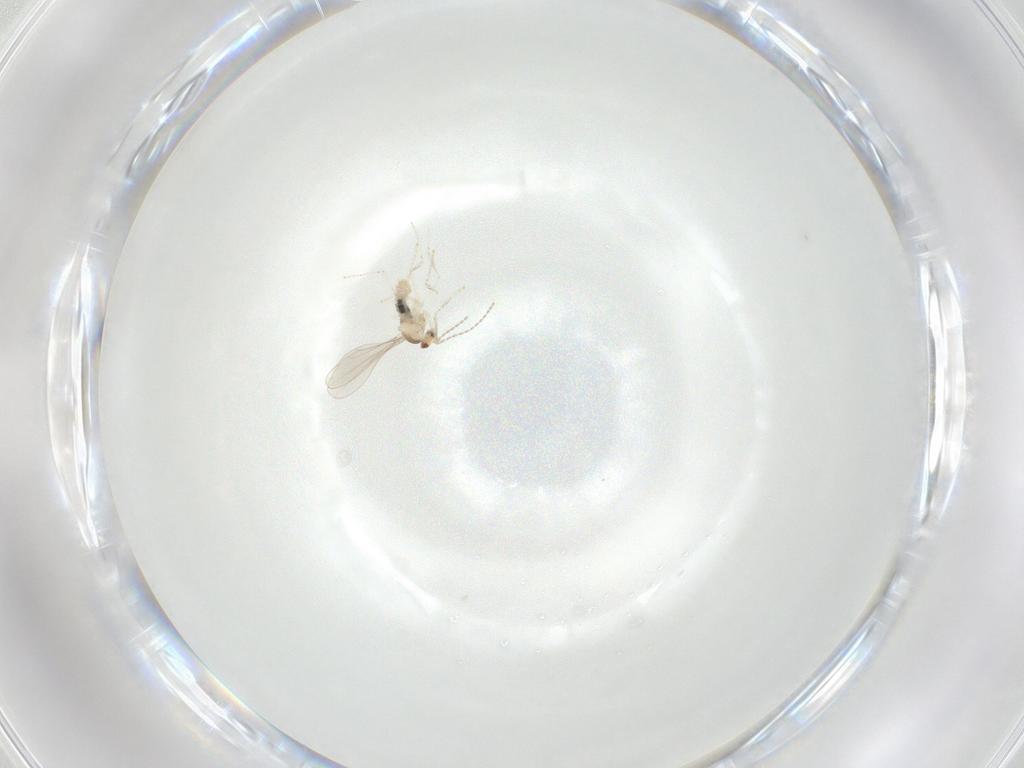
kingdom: Animalia
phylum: Arthropoda
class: Insecta
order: Diptera
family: Cecidomyiidae
